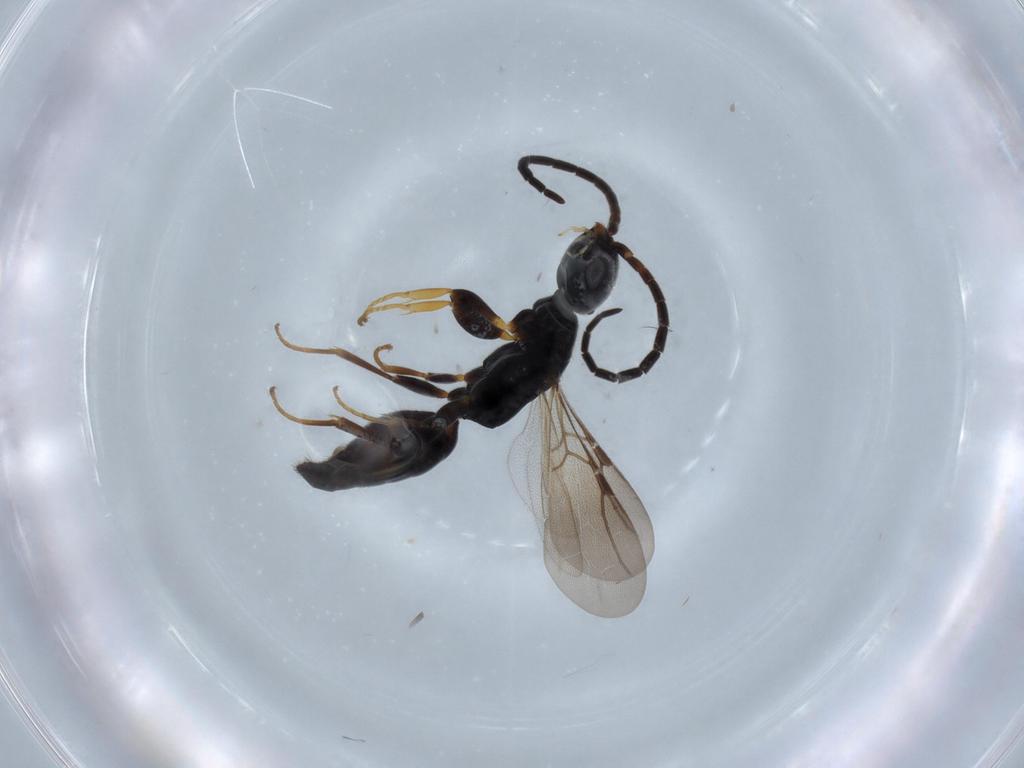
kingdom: Animalia
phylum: Arthropoda
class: Insecta
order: Hymenoptera
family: Bethylidae
